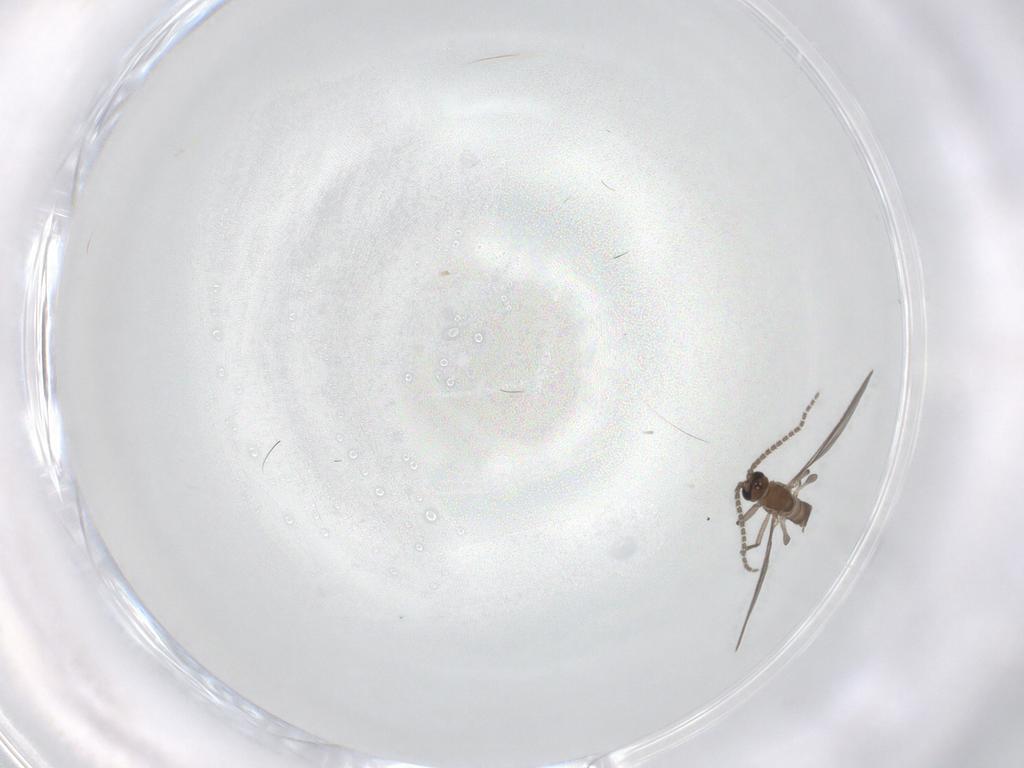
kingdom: Animalia
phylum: Arthropoda
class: Insecta
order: Diptera
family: Sciaridae
